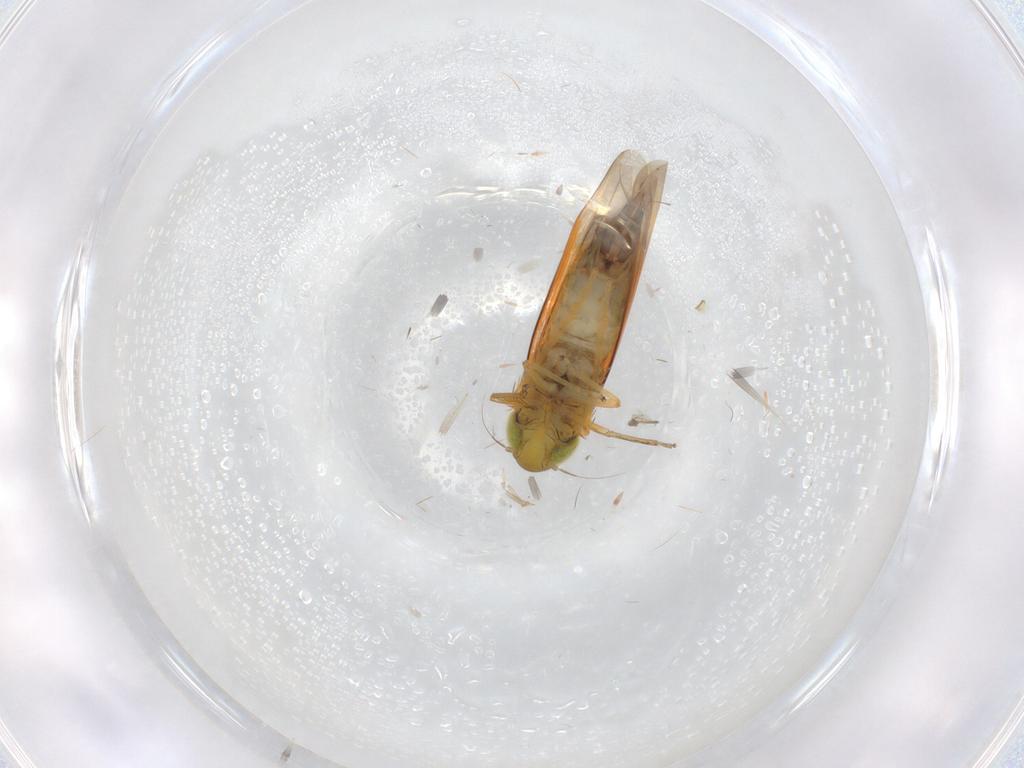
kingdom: Animalia
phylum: Arthropoda
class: Insecta
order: Hemiptera
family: Cicadellidae
